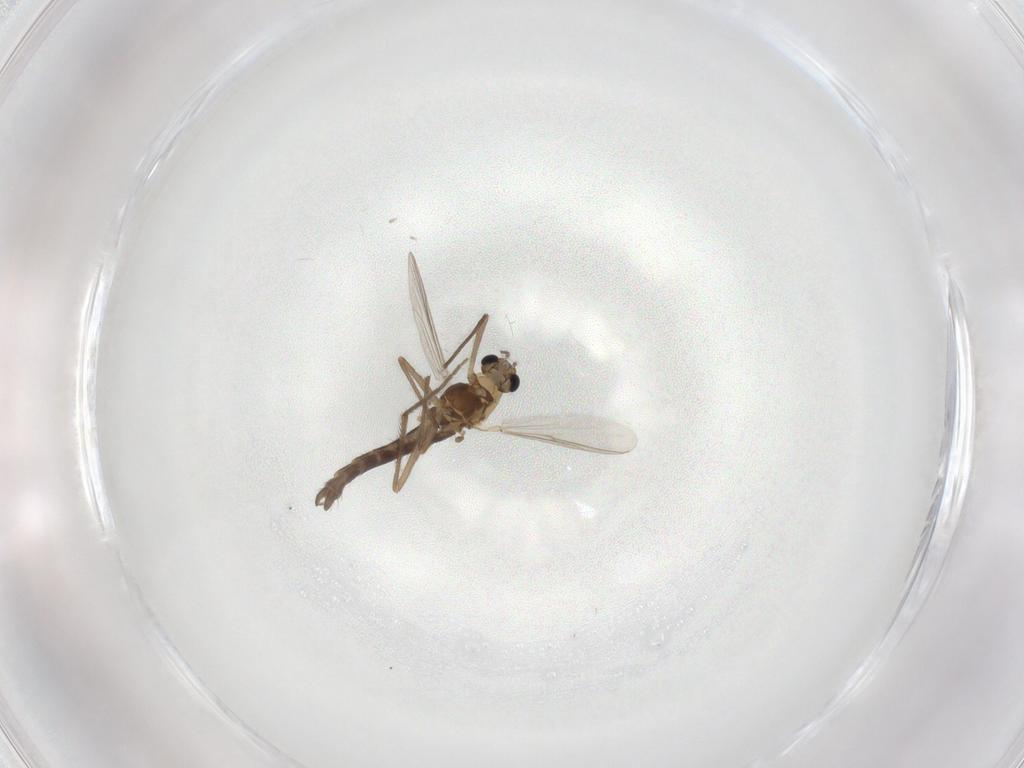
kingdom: Animalia
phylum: Arthropoda
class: Insecta
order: Diptera
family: Chironomidae
